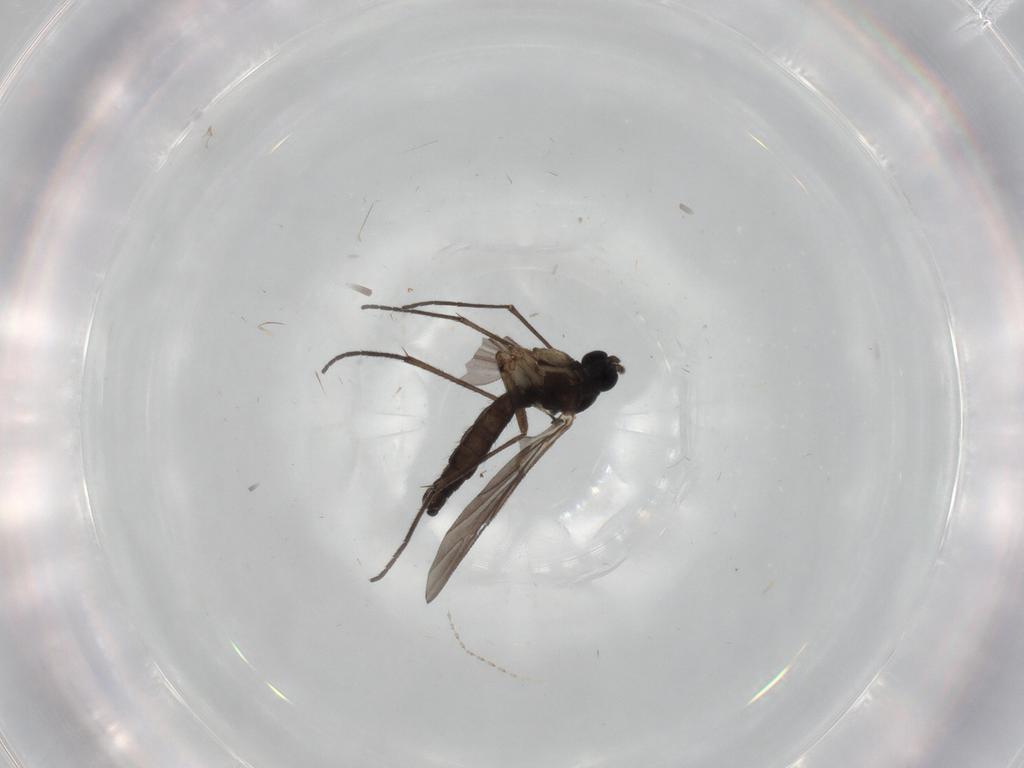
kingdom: Animalia
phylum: Arthropoda
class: Insecta
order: Diptera
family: Sciaridae
